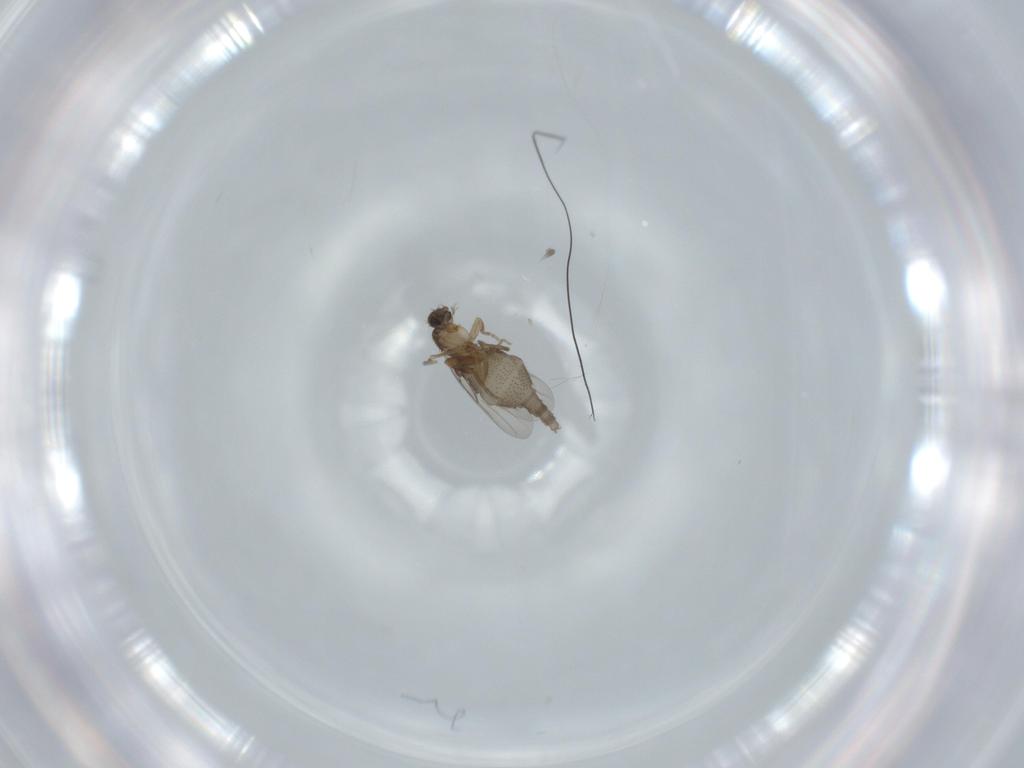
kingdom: Animalia
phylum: Arthropoda
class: Insecta
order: Diptera
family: Phoridae
